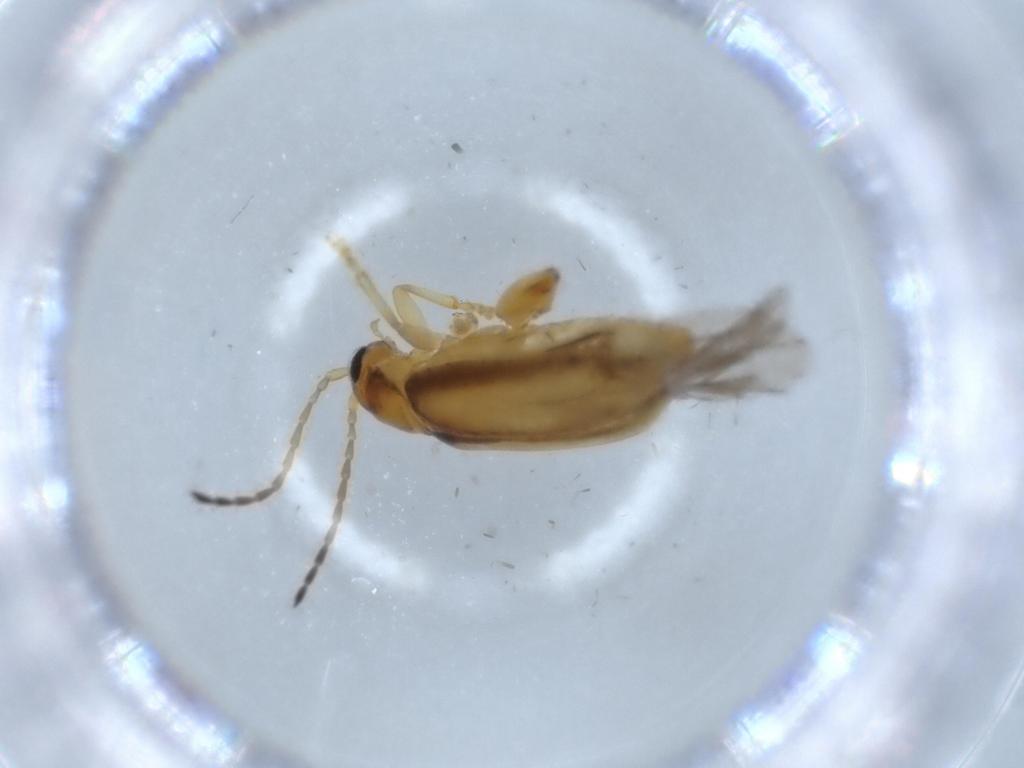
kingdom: Animalia
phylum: Arthropoda
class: Insecta
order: Coleoptera
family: Chrysomelidae
